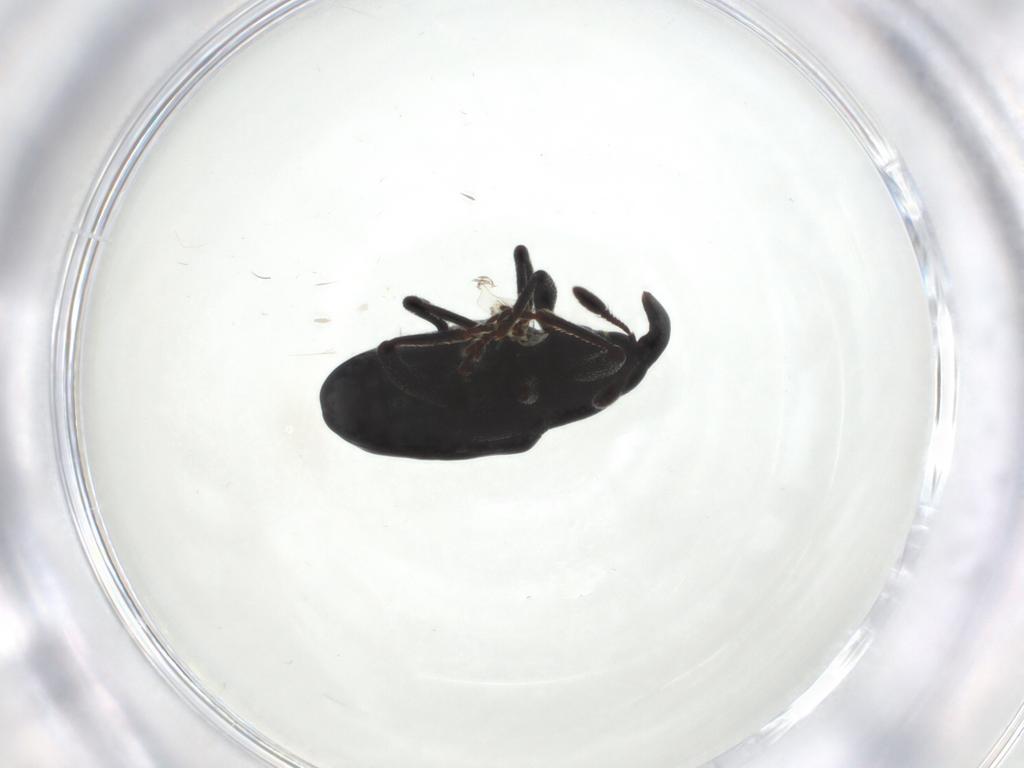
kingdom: Animalia
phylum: Arthropoda
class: Insecta
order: Coleoptera
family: Curculionidae
